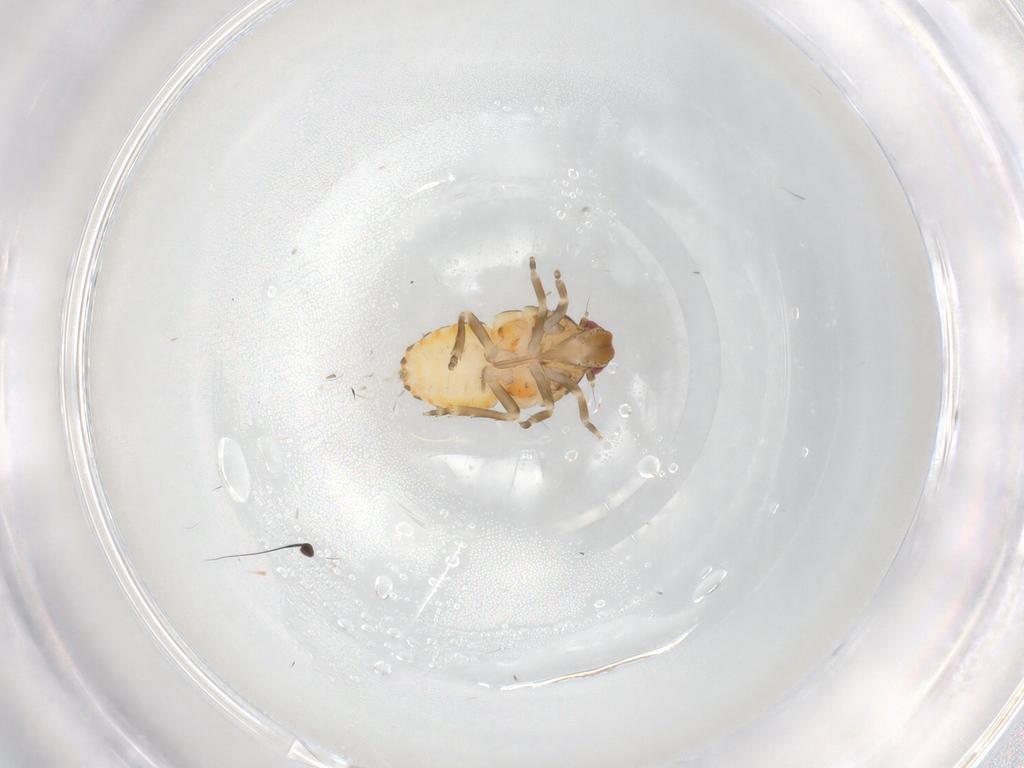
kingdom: Animalia
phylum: Arthropoda
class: Insecta
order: Hemiptera
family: Flatidae
